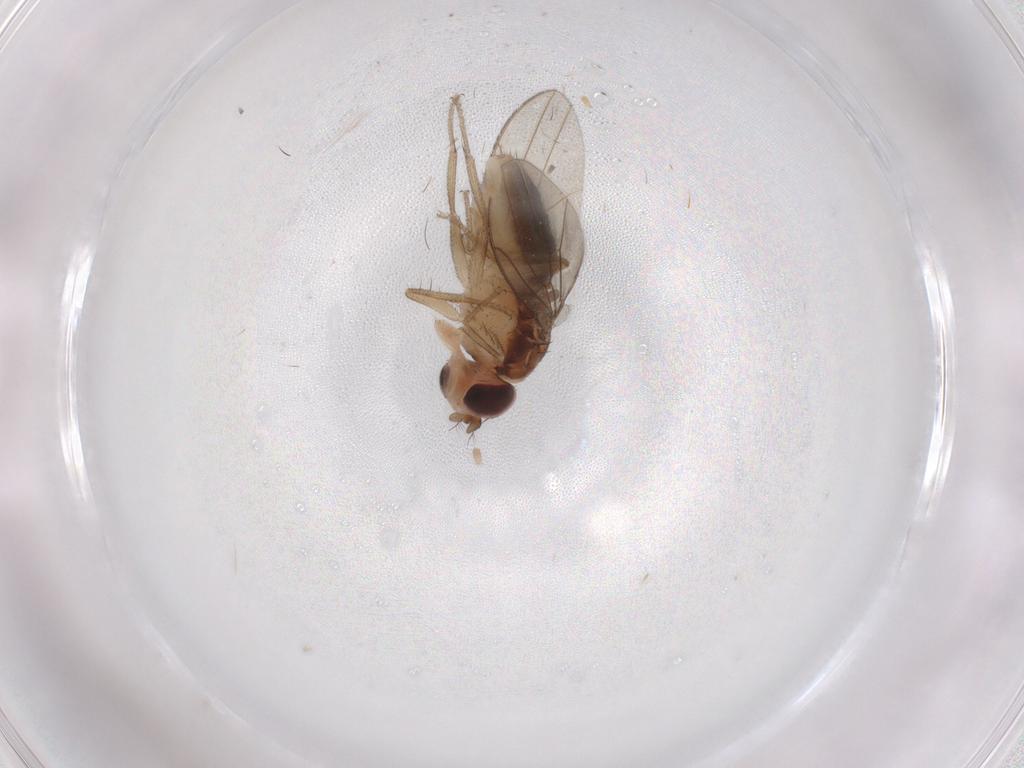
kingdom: Animalia
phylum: Arthropoda
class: Insecta
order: Diptera
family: Drosophilidae
